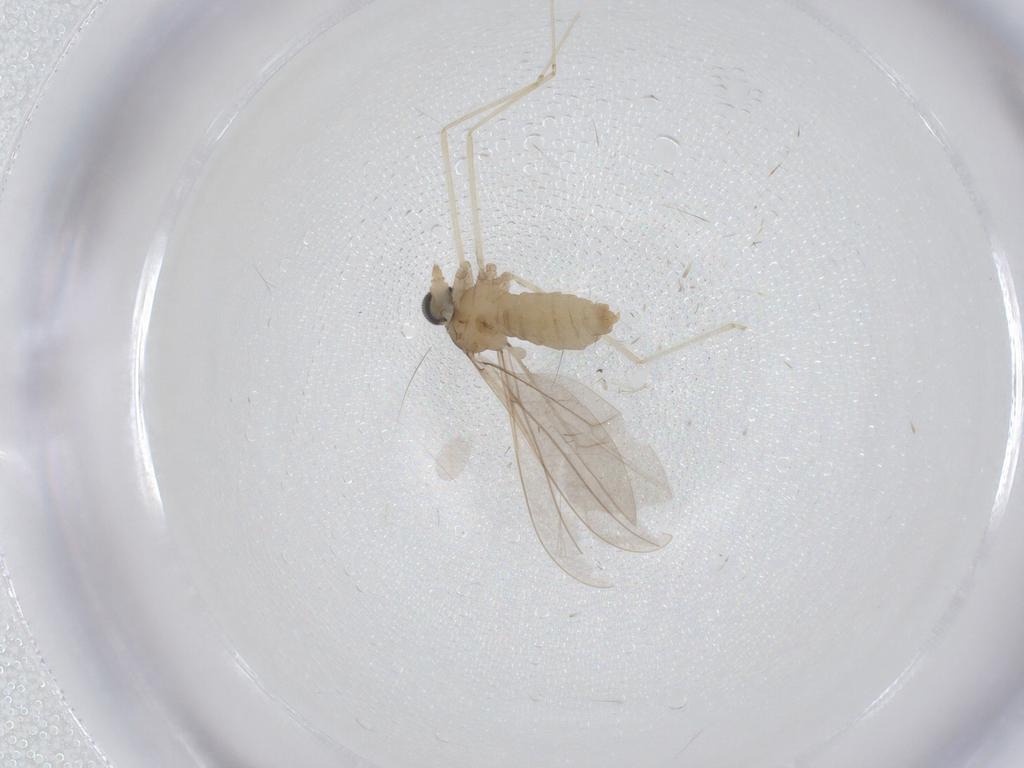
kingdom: Animalia
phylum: Arthropoda
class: Insecta
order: Diptera
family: Cecidomyiidae
